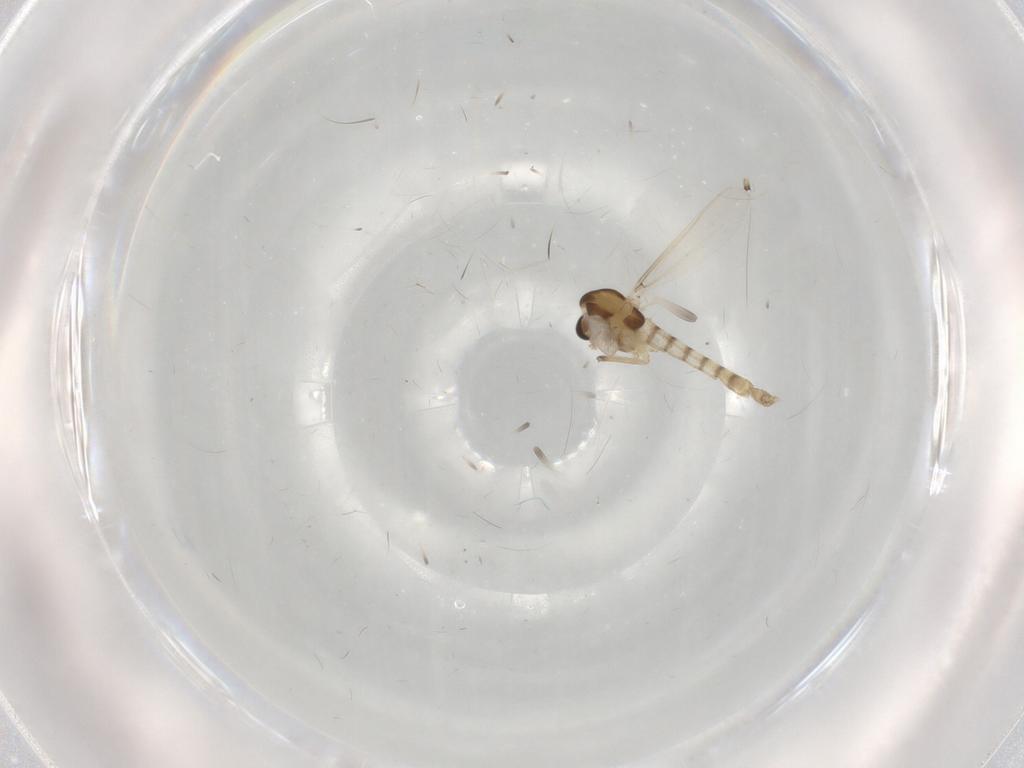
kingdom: Animalia
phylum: Arthropoda
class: Insecta
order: Diptera
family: Chironomidae
